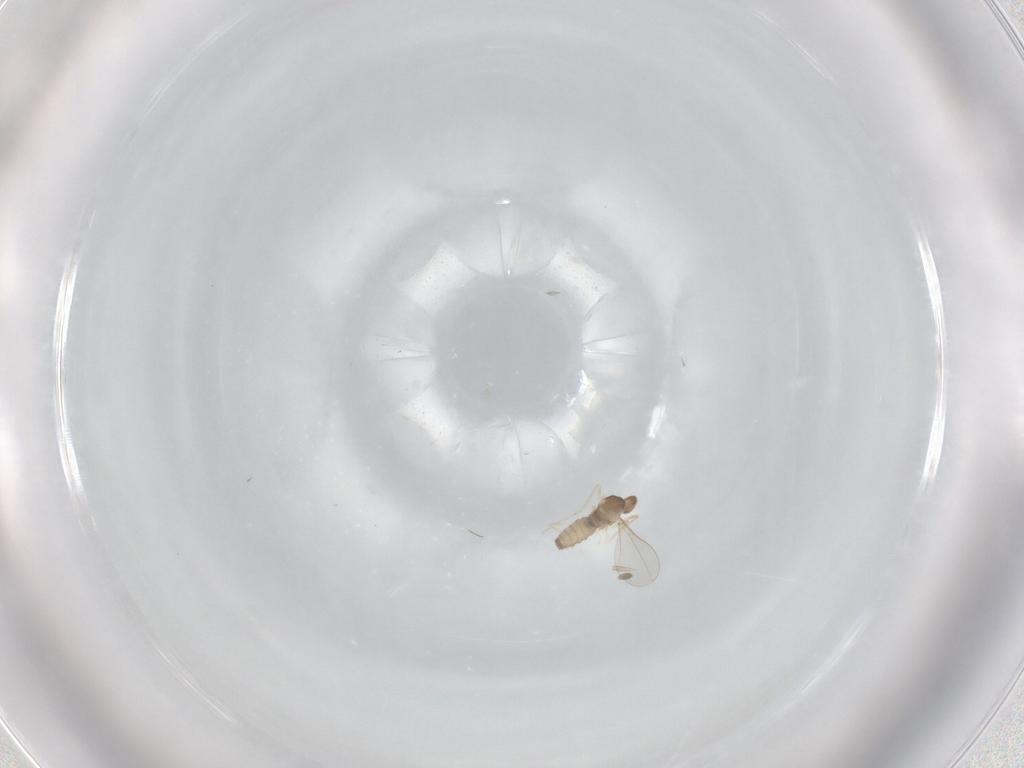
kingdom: Animalia
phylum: Arthropoda
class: Insecta
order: Diptera
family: Cecidomyiidae
